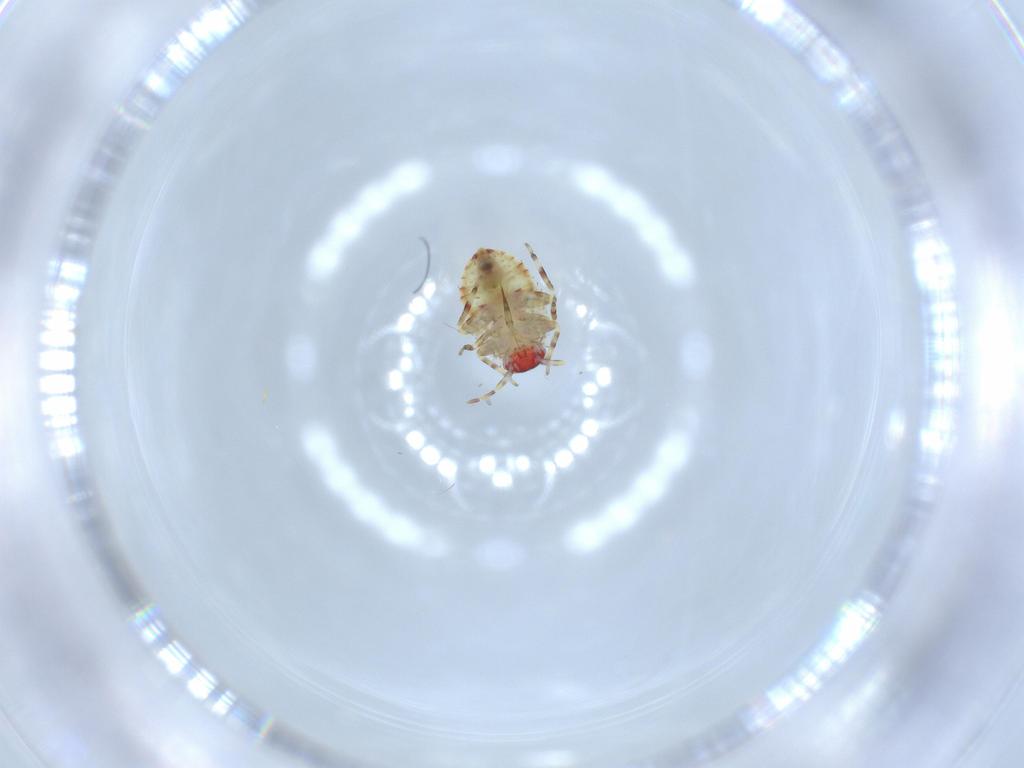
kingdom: Animalia
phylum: Arthropoda
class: Insecta
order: Hemiptera
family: Miridae
